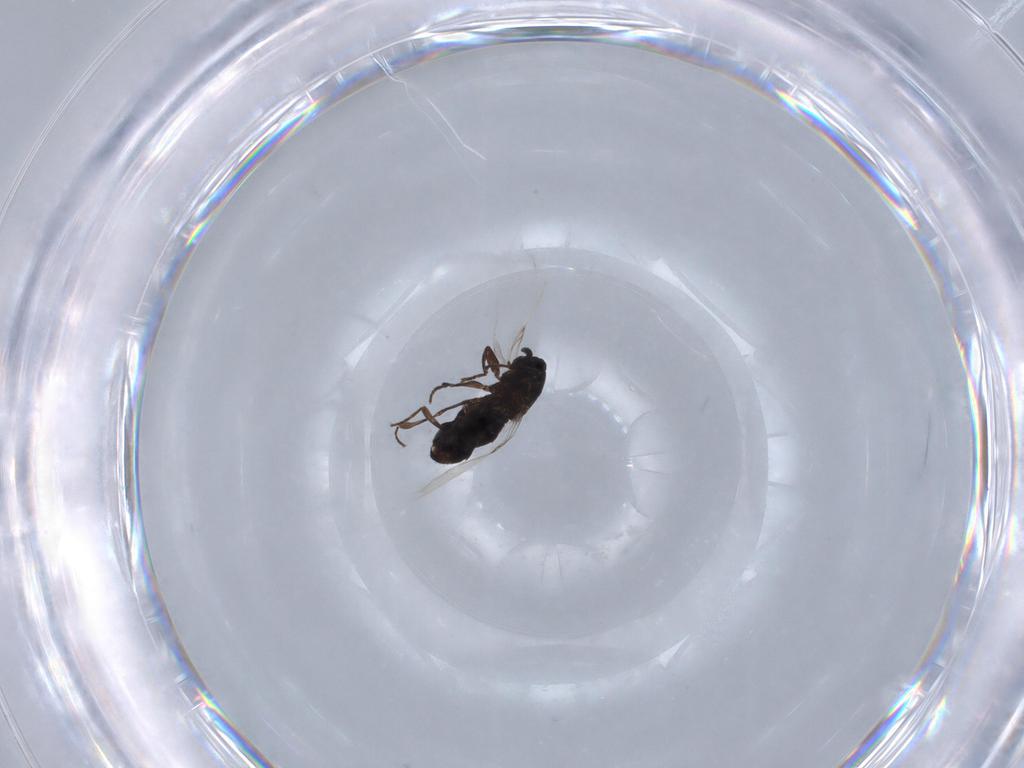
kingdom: Animalia
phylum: Arthropoda
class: Insecta
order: Diptera
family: Scatopsidae
